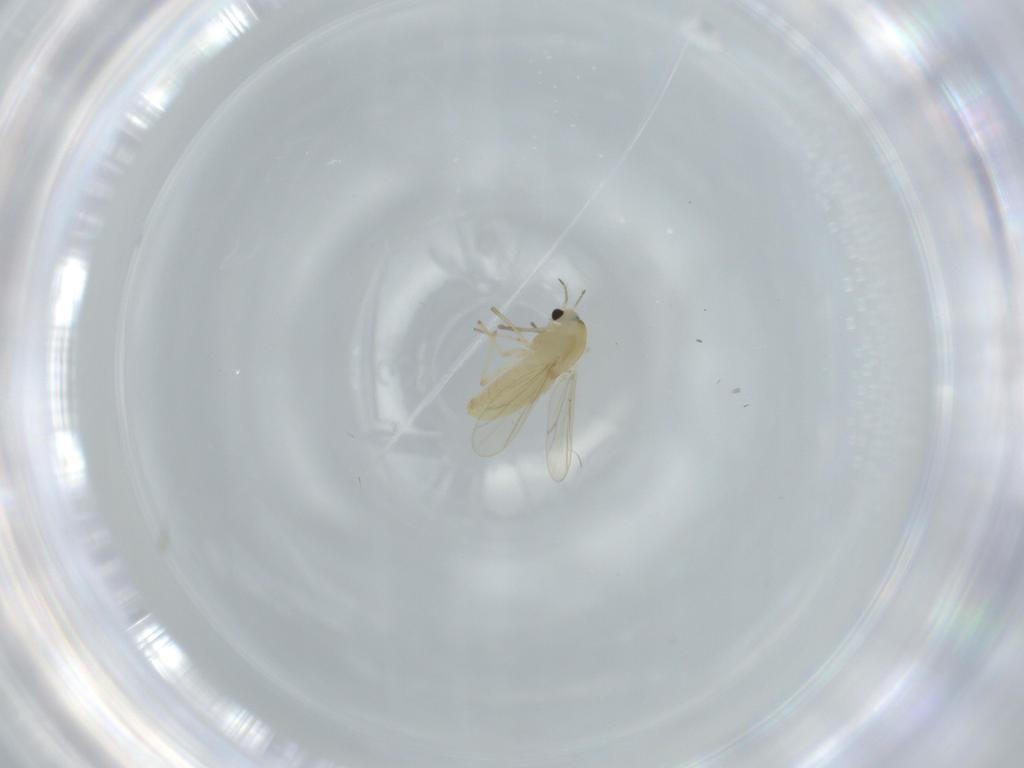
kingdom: Animalia
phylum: Arthropoda
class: Insecta
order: Diptera
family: Chironomidae
